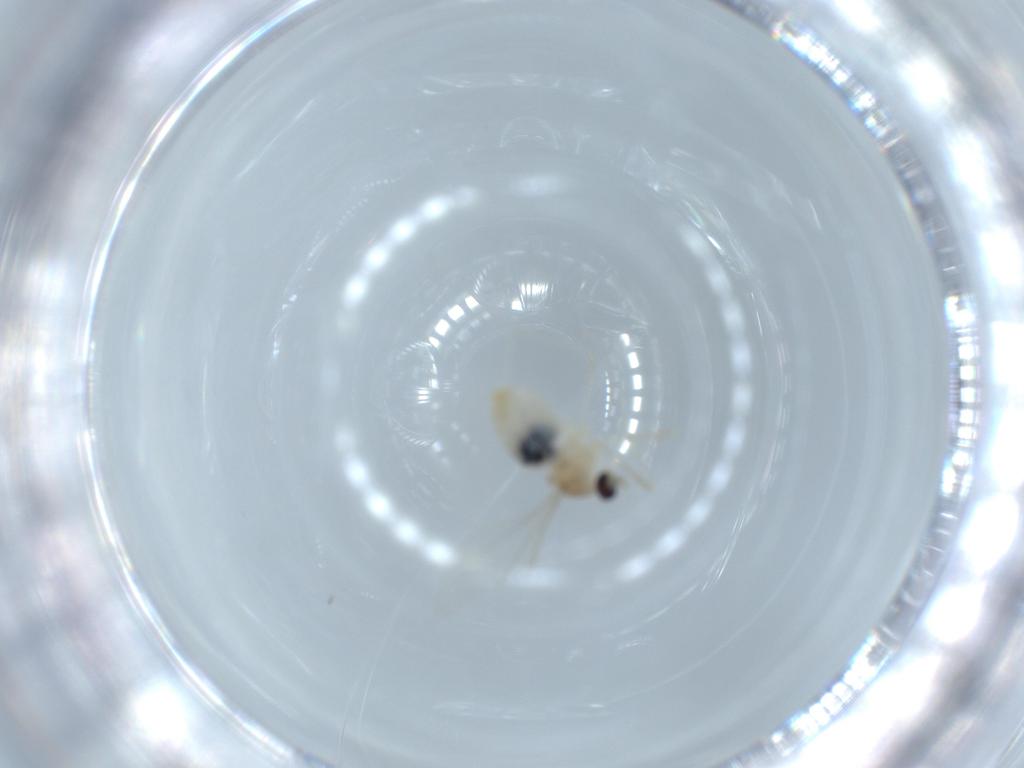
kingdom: Animalia
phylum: Arthropoda
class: Insecta
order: Diptera
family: Cecidomyiidae
